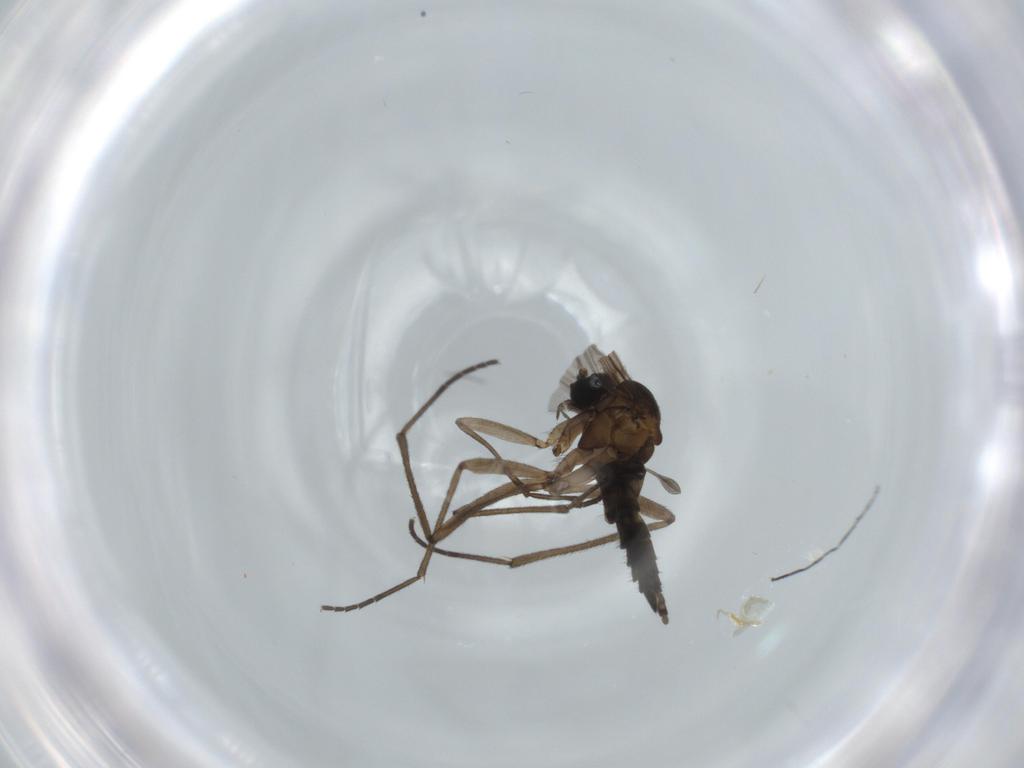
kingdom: Animalia
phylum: Arthropoda
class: Insecta
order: Diptera
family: Sciaridae
